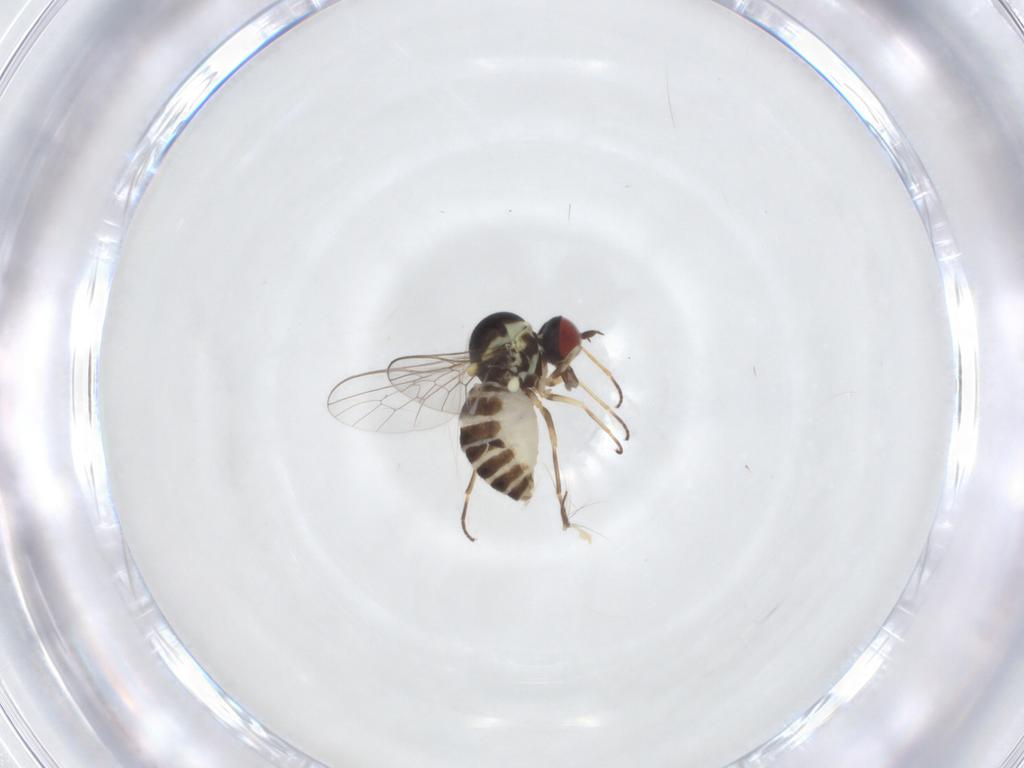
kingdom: Animalia
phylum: Arthropoda
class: Insecta
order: Diptera
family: Bombyliidae
